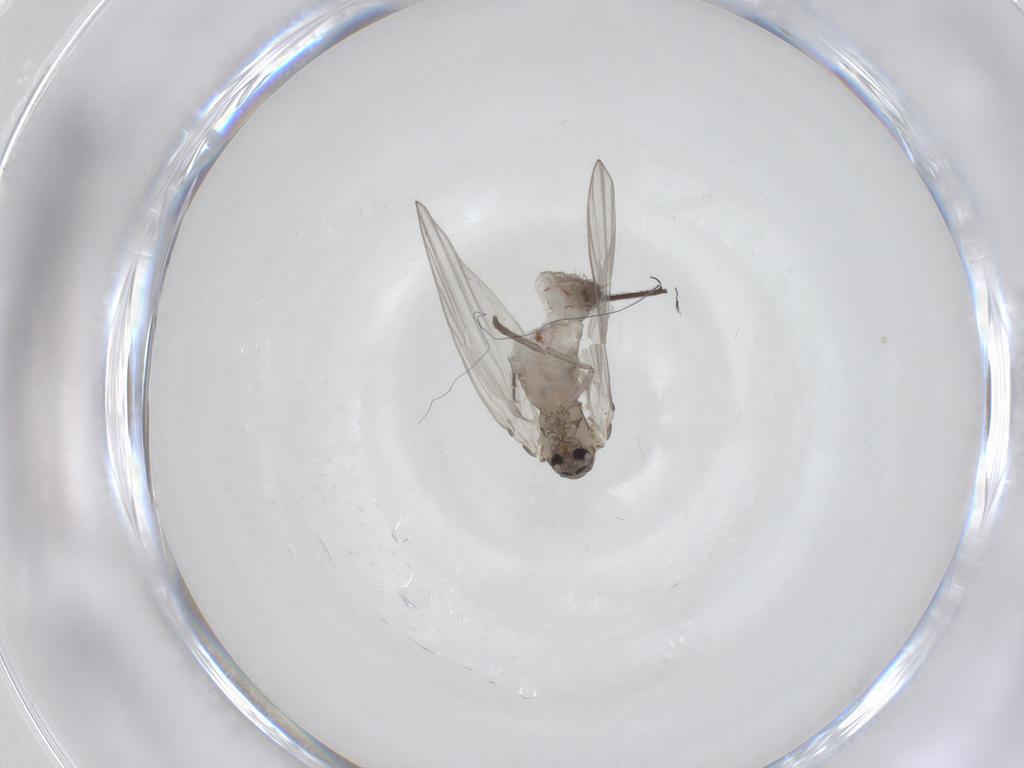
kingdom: Animalia
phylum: Arthropoda
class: Insecta
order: Diptera
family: Psychodidae
